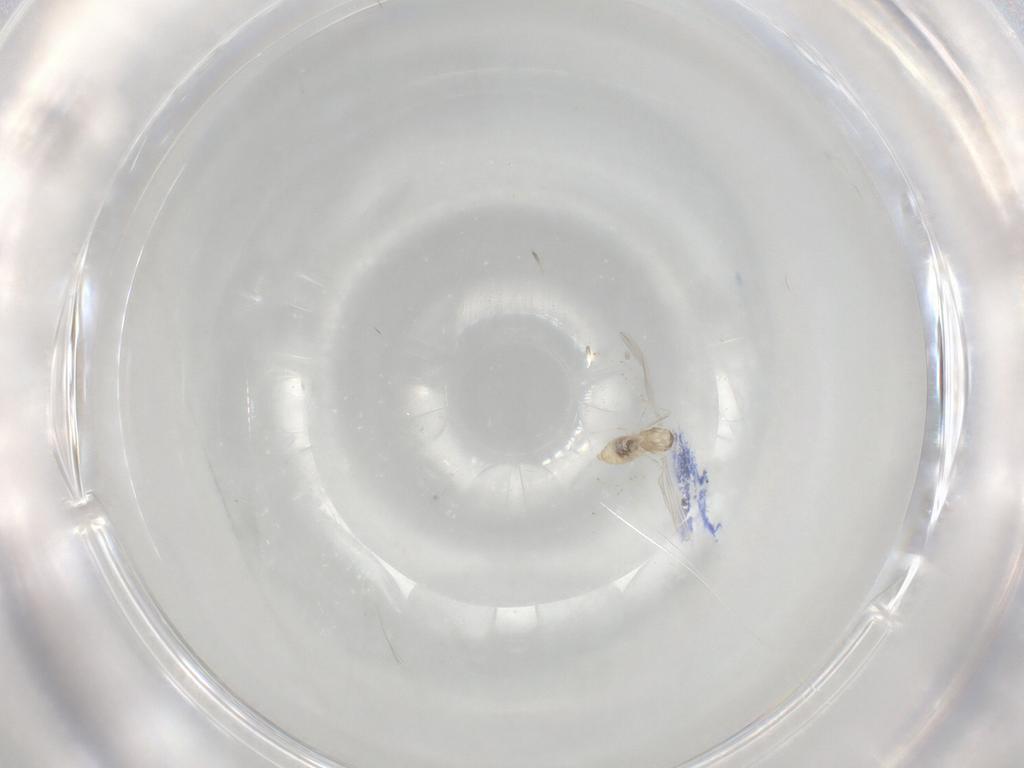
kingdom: Animalia
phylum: Arthropoda
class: Insecta
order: Diptera
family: Cecidomyiidae
